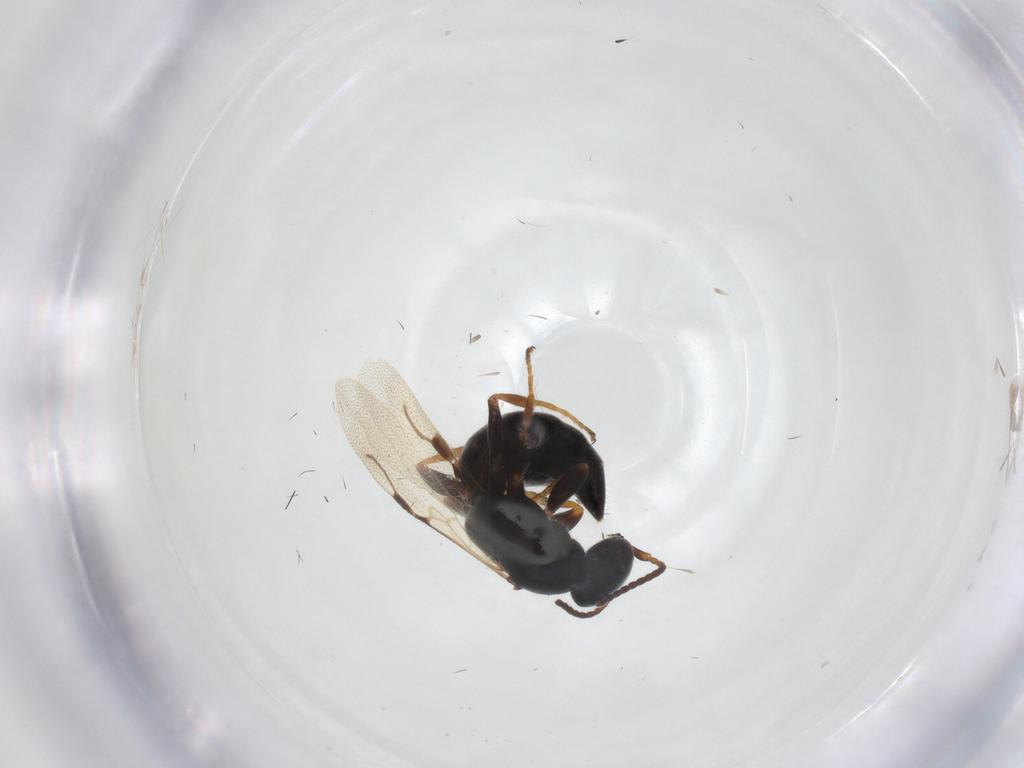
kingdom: Animalia
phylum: Arthropoda
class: Insecta
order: Hymenoptera
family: Bethylidae
